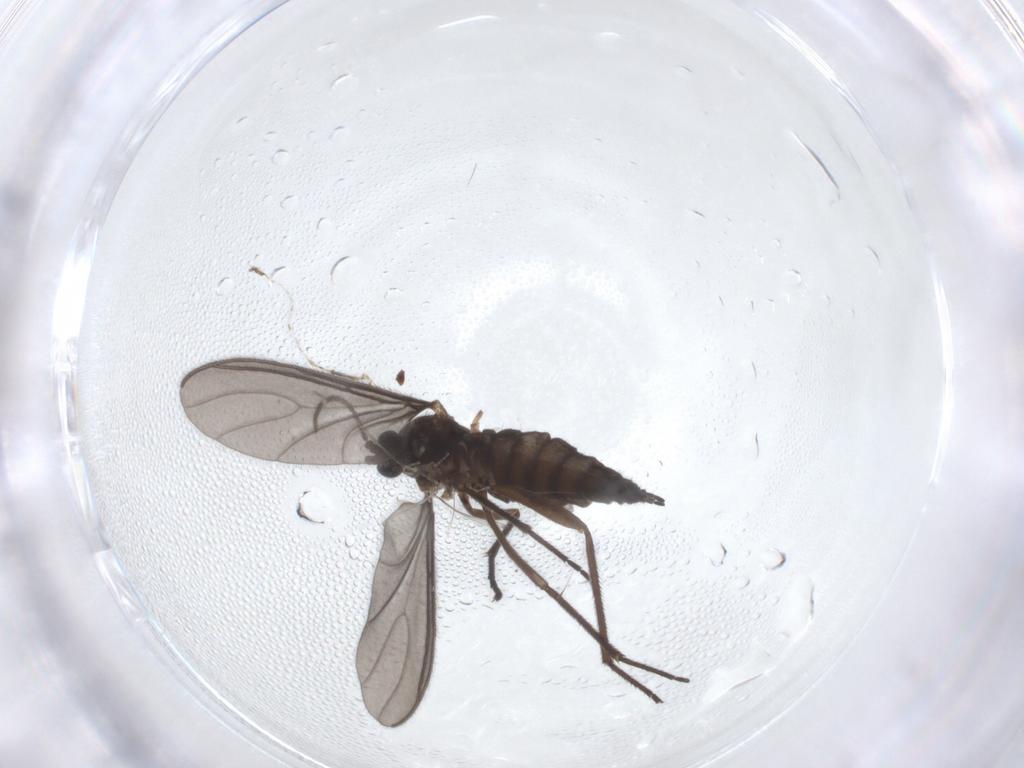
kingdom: Animalia
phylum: Arthropoda
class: Insecta
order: Diptera
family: Sciaridae
